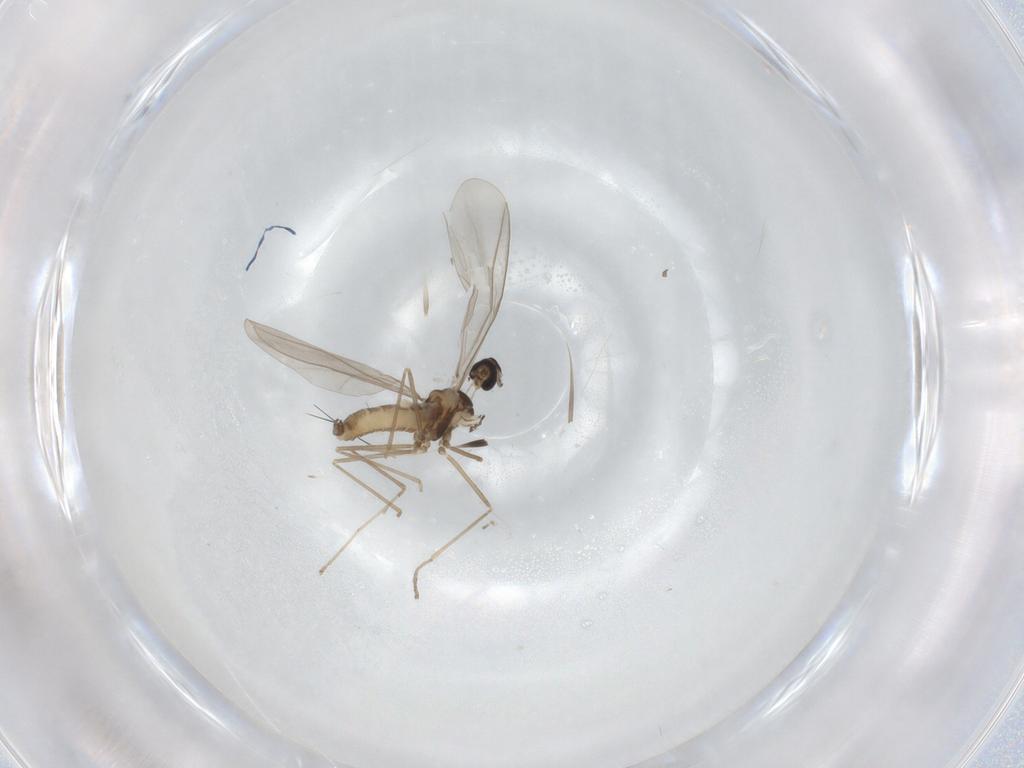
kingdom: Animalia
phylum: Arthropoda
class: Insecta
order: Diptera
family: Cecidomyiidae
